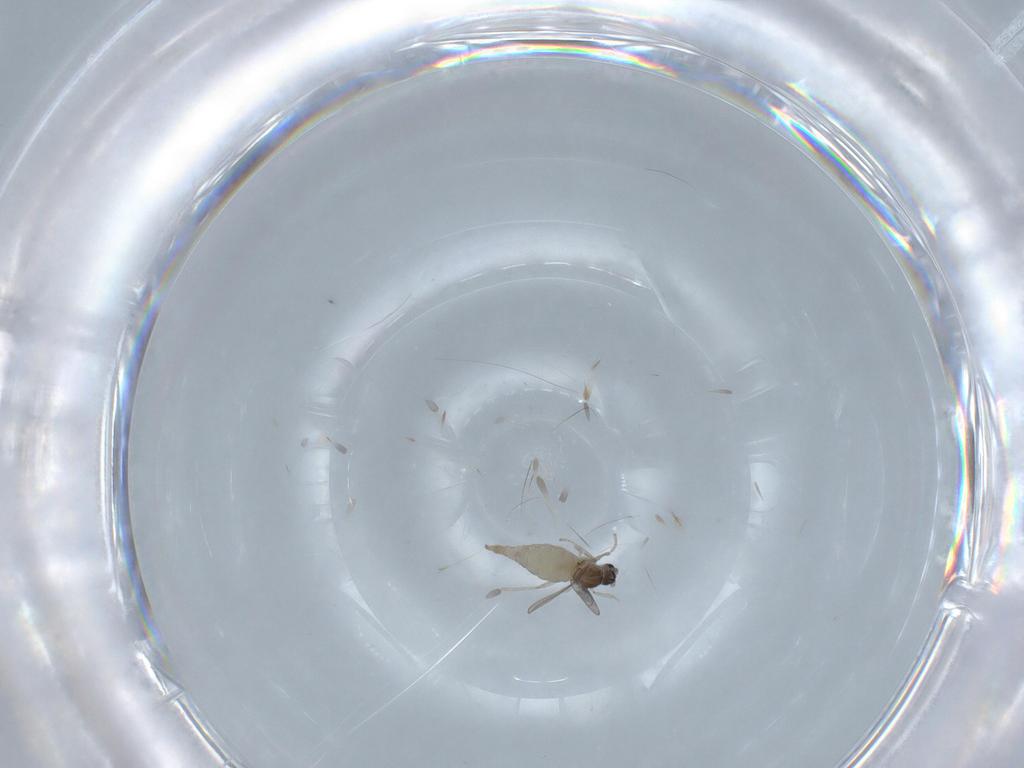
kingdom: Animalia
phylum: Arthropoda
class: Insecta
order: Diptera
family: Cecidomyiidae
